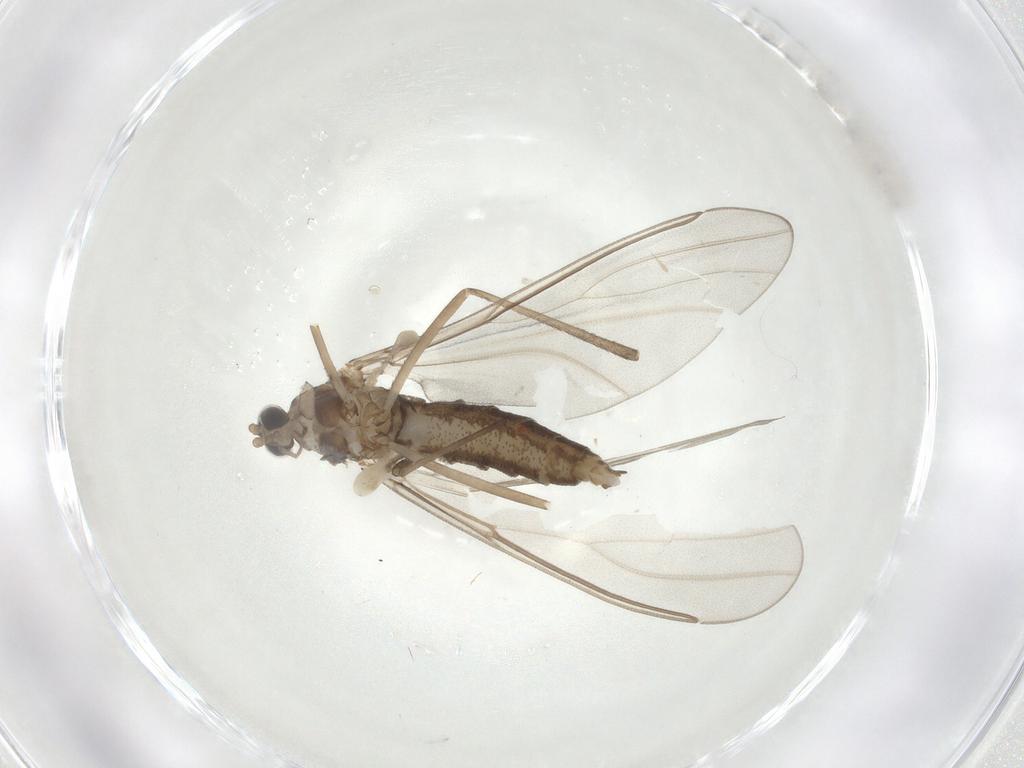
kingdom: Animalia
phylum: Arthropoda
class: Insecta
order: Diptera
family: Chironomidae
